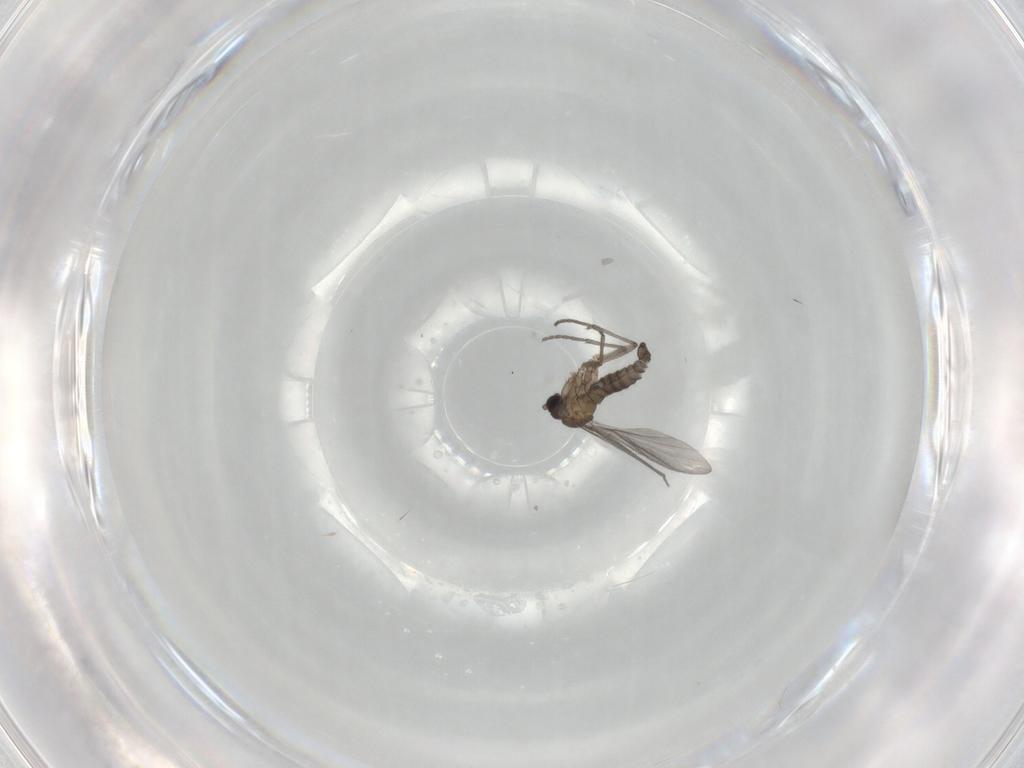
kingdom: Animalia
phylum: Arthropoda
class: Insecta
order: Diptera
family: Sciaridae
